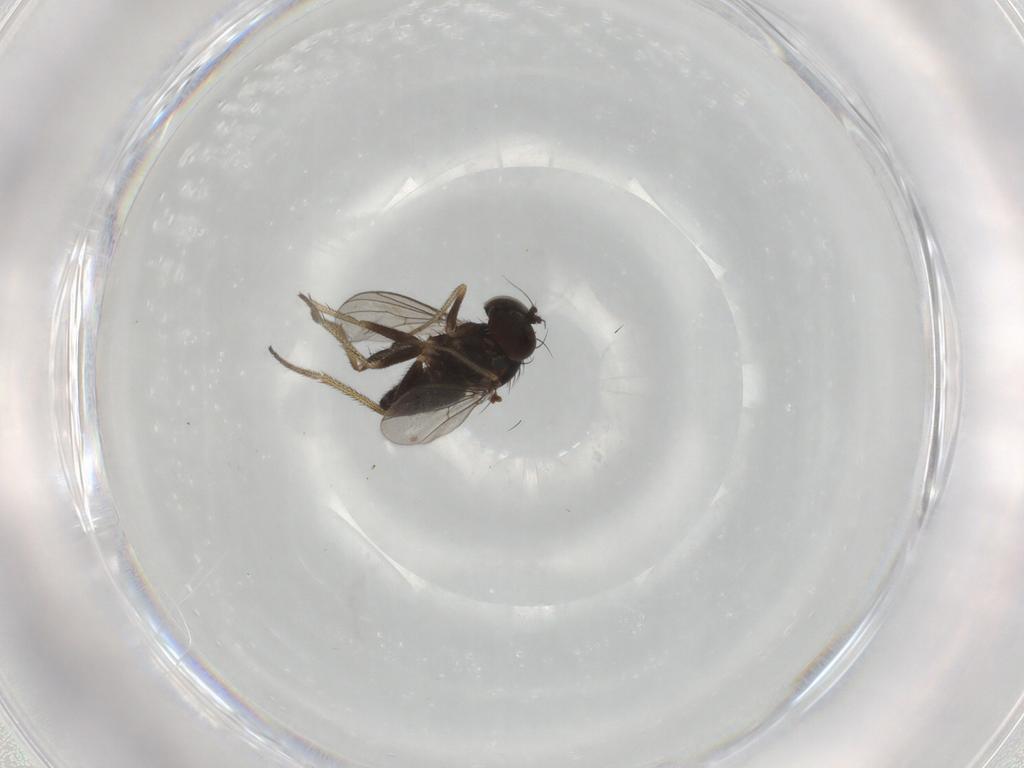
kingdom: Animalia
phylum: Arthropoda
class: Insecta
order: Diptera
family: Chironomidae
